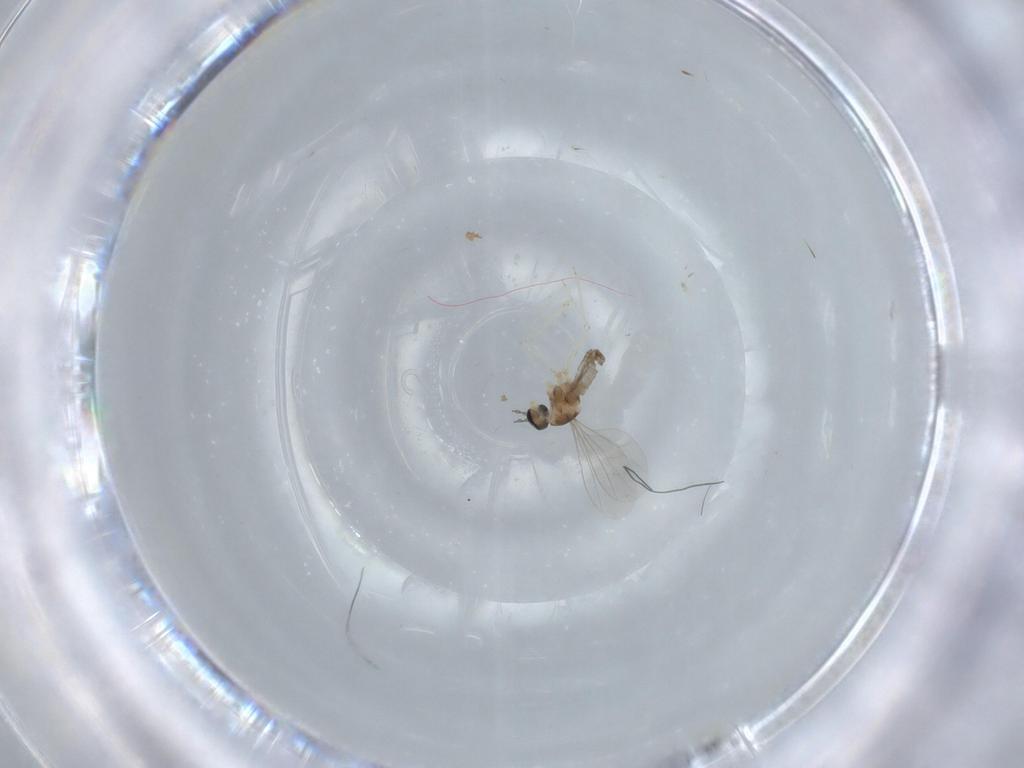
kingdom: Animalia
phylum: Arthropoda
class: Insecta
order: Diptera
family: Cecidomyiidae
